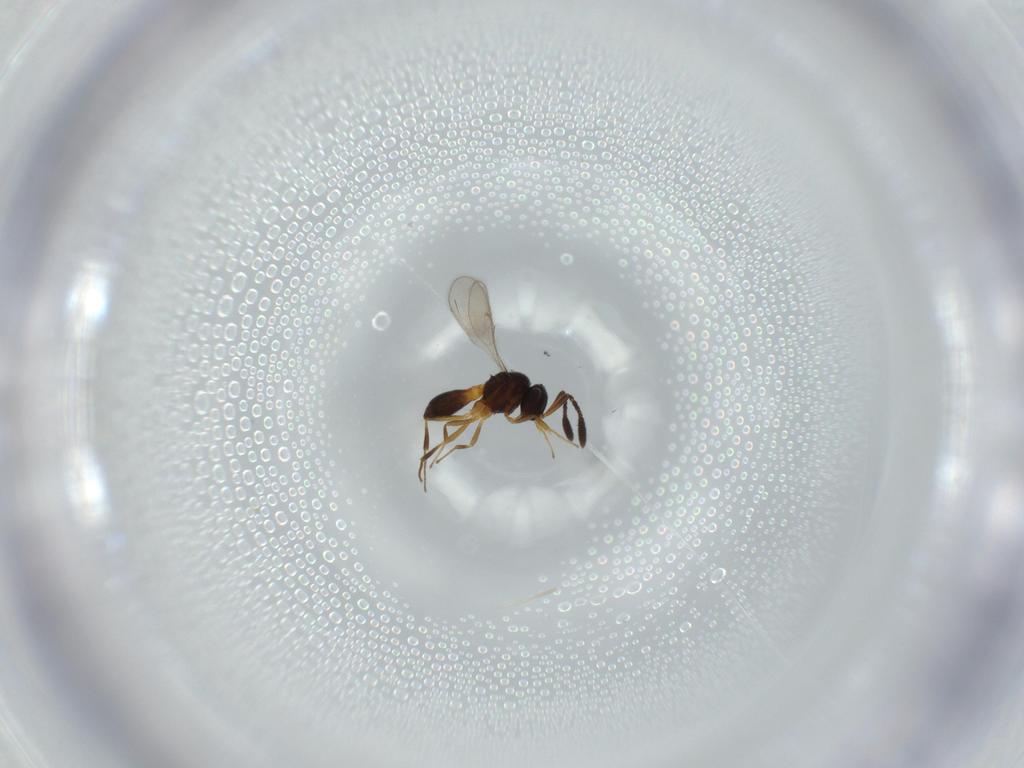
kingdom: Animalia
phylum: Arthropoda
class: Insecta
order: Hymenoptera
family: Scelionidae
